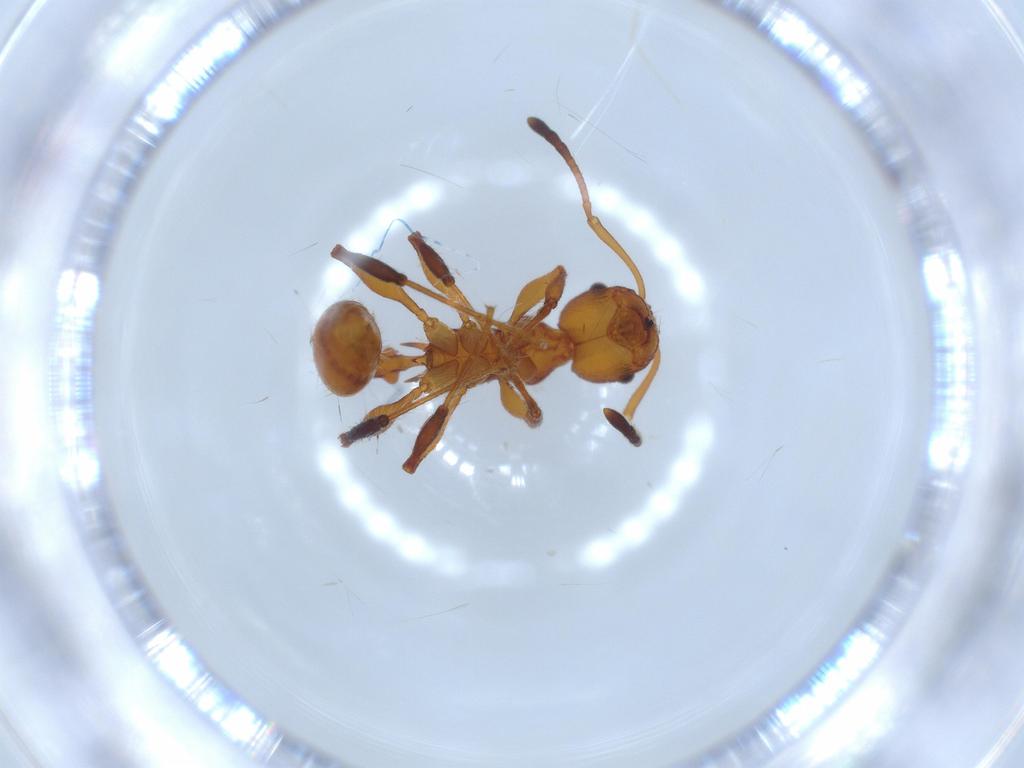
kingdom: Animalia
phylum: Arthropoda
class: Insecta
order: Hymenoptera
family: Formicidae
